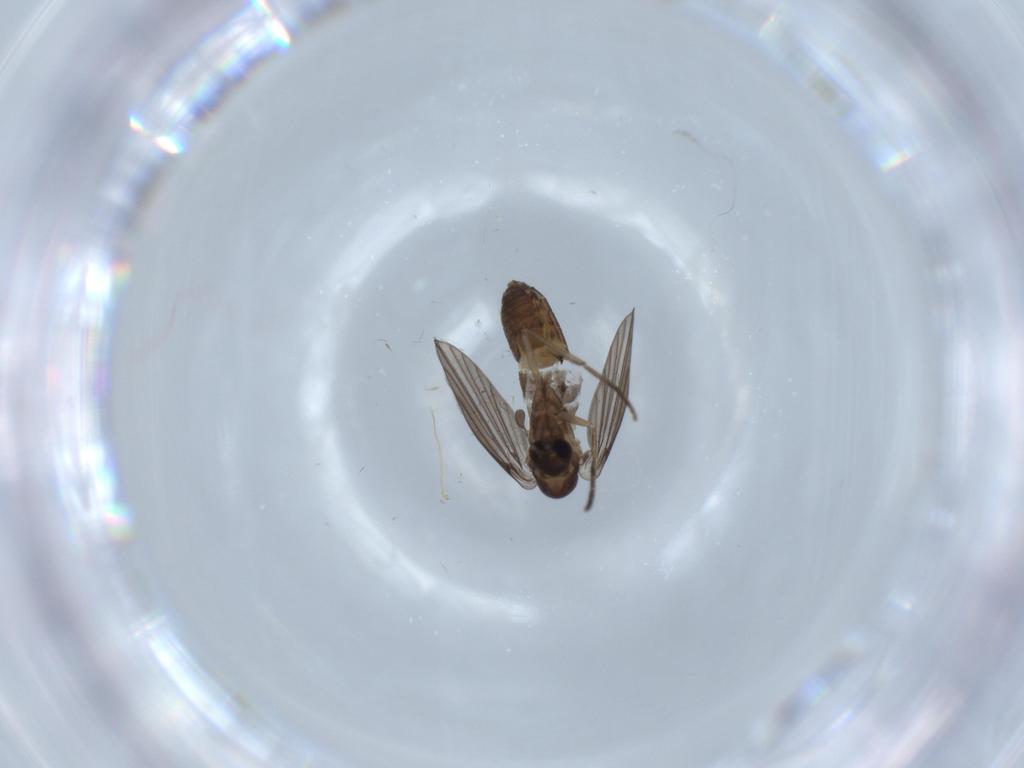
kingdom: Animalia
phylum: Arthropoda
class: Insecta
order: Diptera
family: Psychodidae
